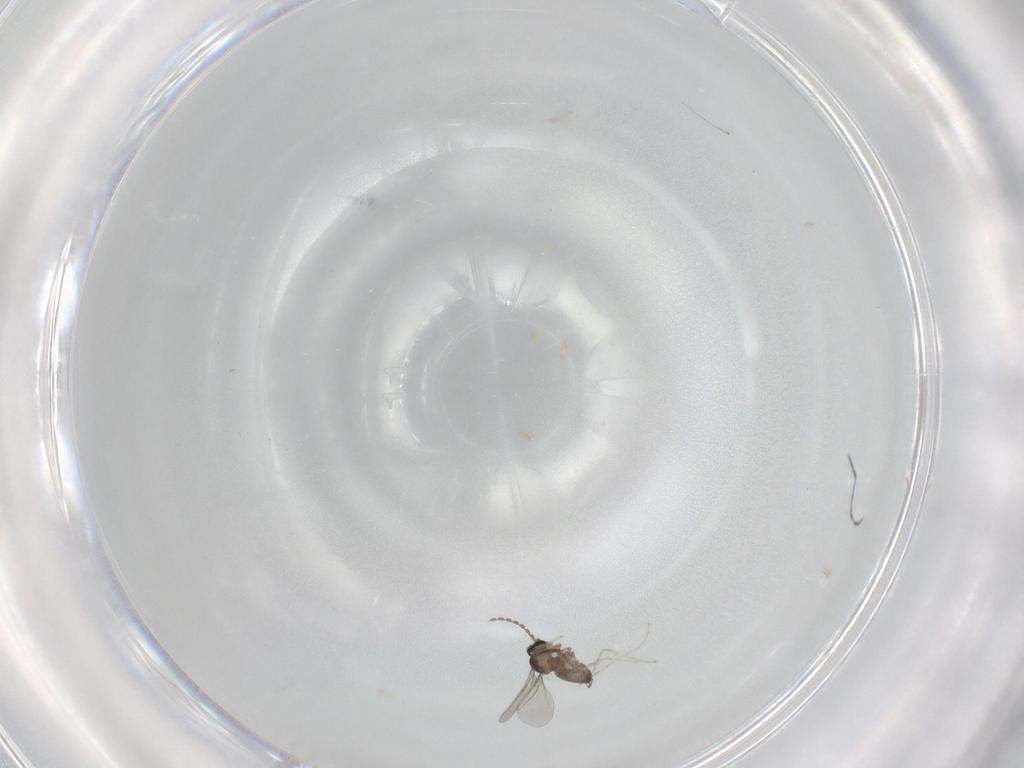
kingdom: Animalia
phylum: Arthropoda
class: Insecta
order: Diptera
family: Cecidomyiidae
